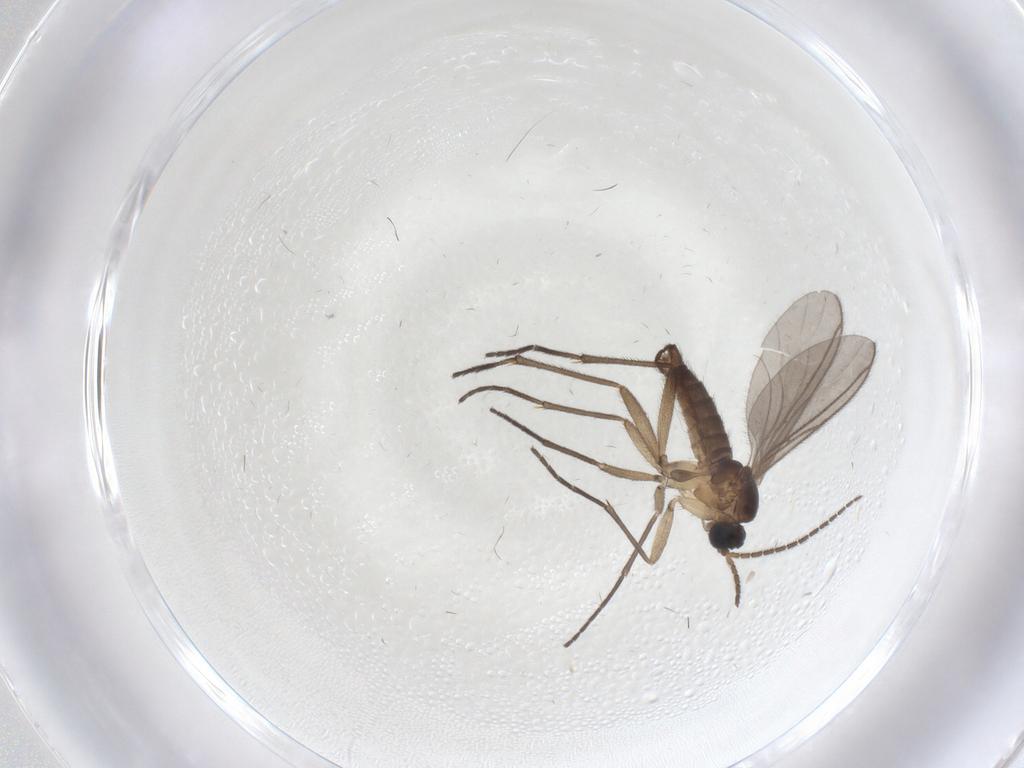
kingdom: Animalia
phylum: Arthropoda
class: Insecta
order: Diptera
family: Sciaridae
